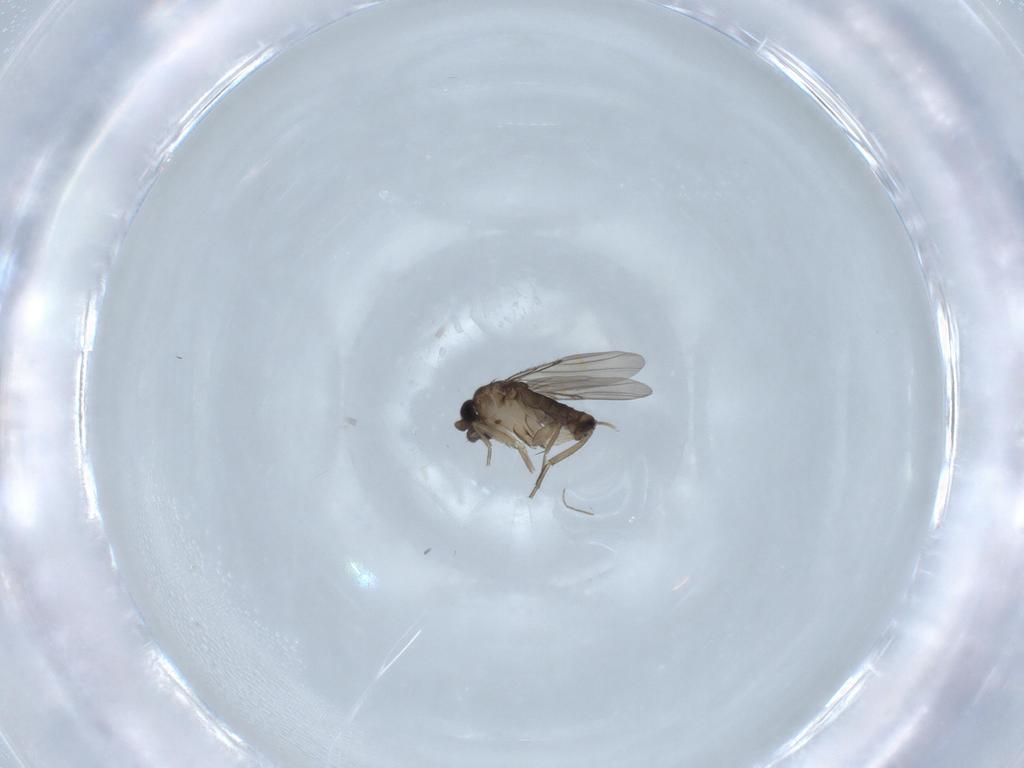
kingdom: Animalia
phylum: Arthropoda
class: Insecta
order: Diptera
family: Phoridae
